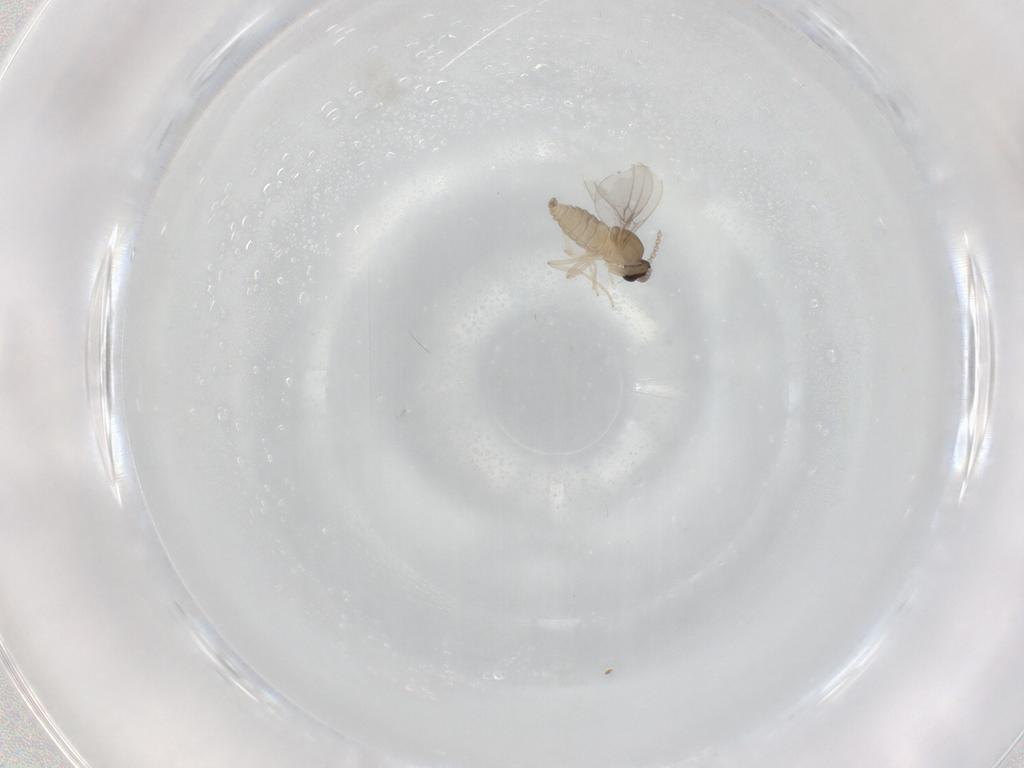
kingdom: Animalia
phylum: Arthropoda
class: Insecta
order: Diptera
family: Cecidomyiidae
